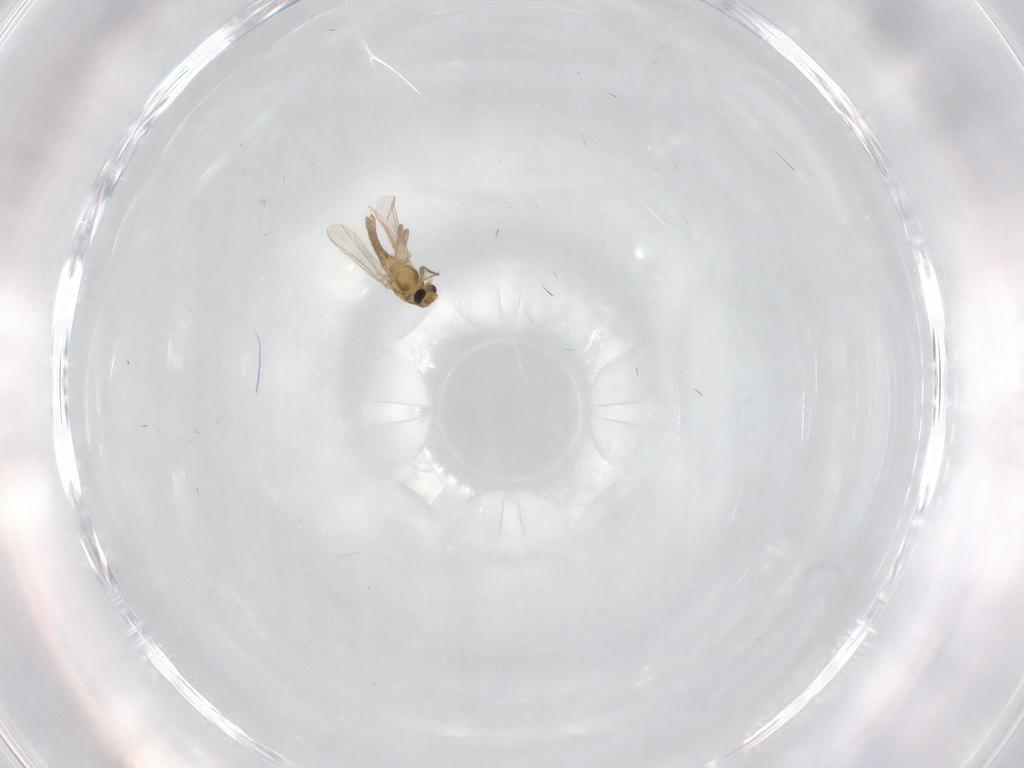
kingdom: Animalia
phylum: Arthropoda
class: Insecta
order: Diptera
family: Chironomidae
